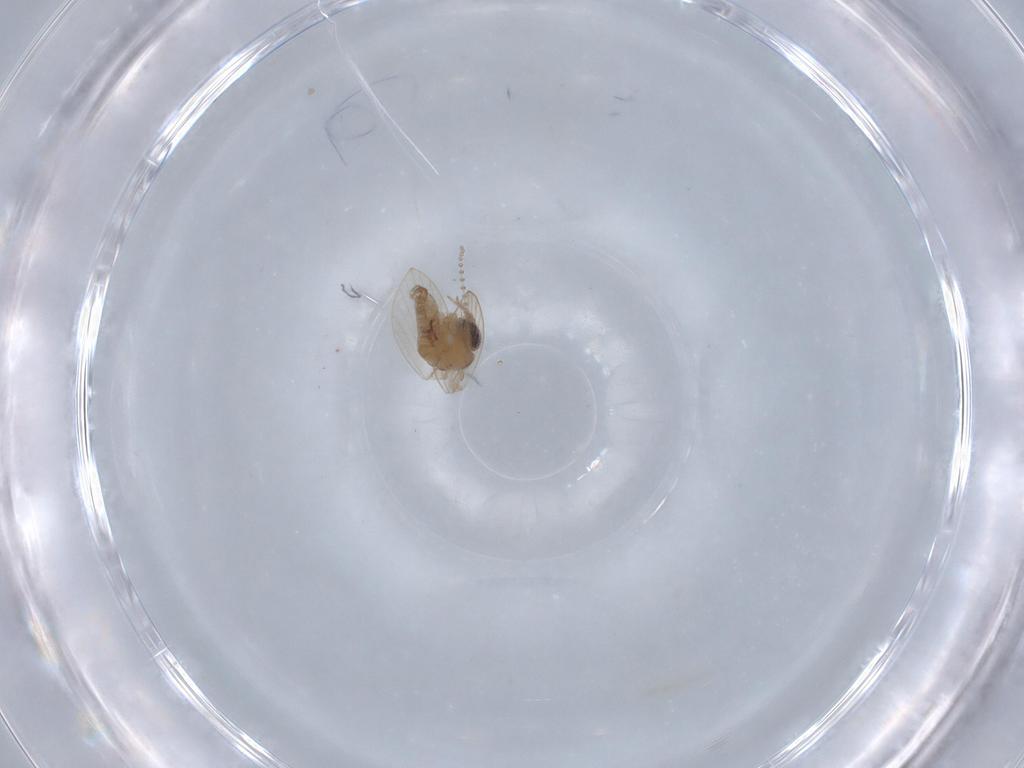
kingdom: Animalia
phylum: Arthropoda
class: Insecta
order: Diptera
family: Psychodidae
